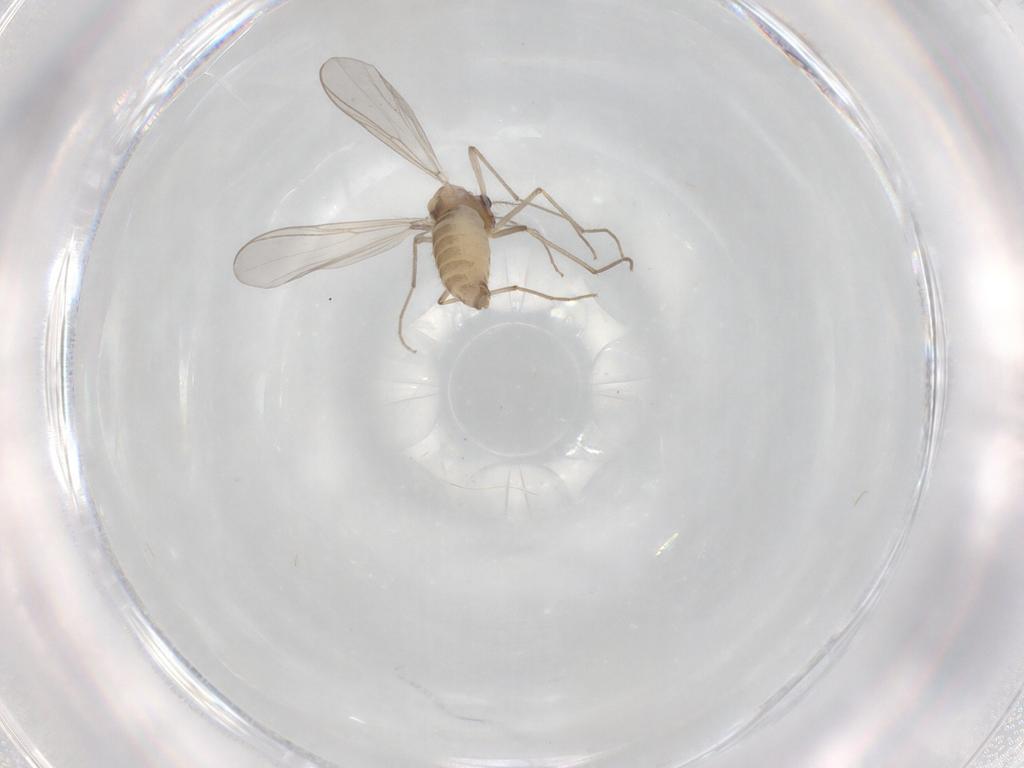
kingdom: Animalia
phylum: Arthropoda
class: Insecta
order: Diptera
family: Chironomidae
